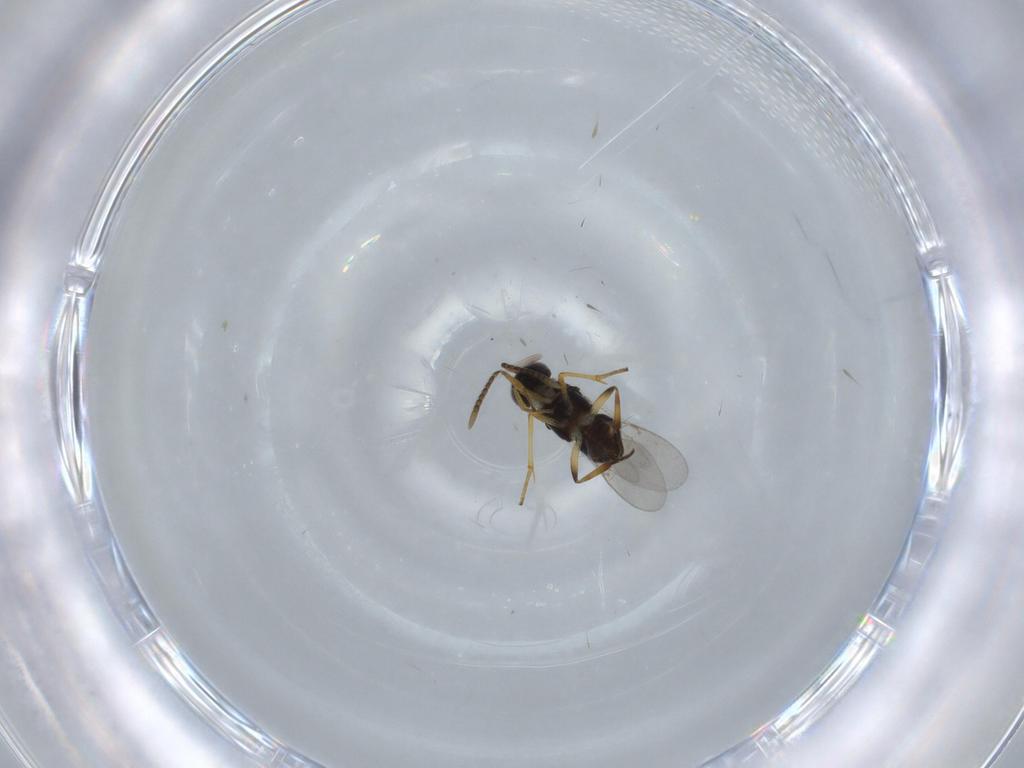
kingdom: Animalia
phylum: Arthropoda
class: Insecta
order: Hymenoptera
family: Encyrtidae
